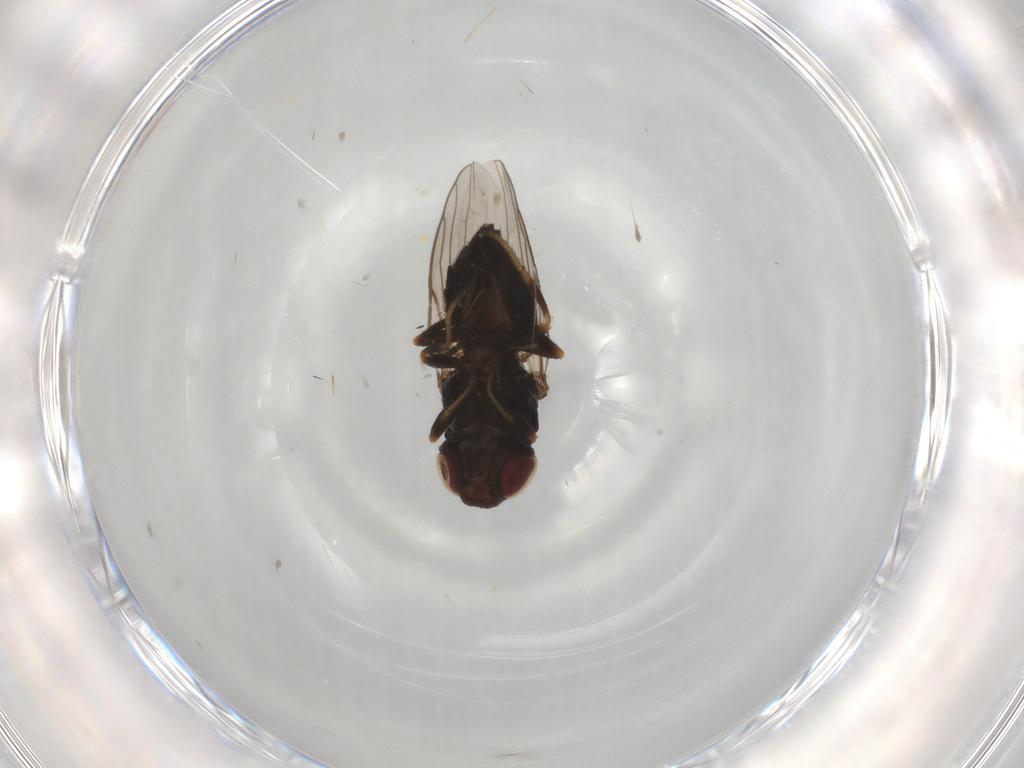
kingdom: Animalia
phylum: Arthropoda
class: Insecta
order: Diptera
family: Chloropidae
